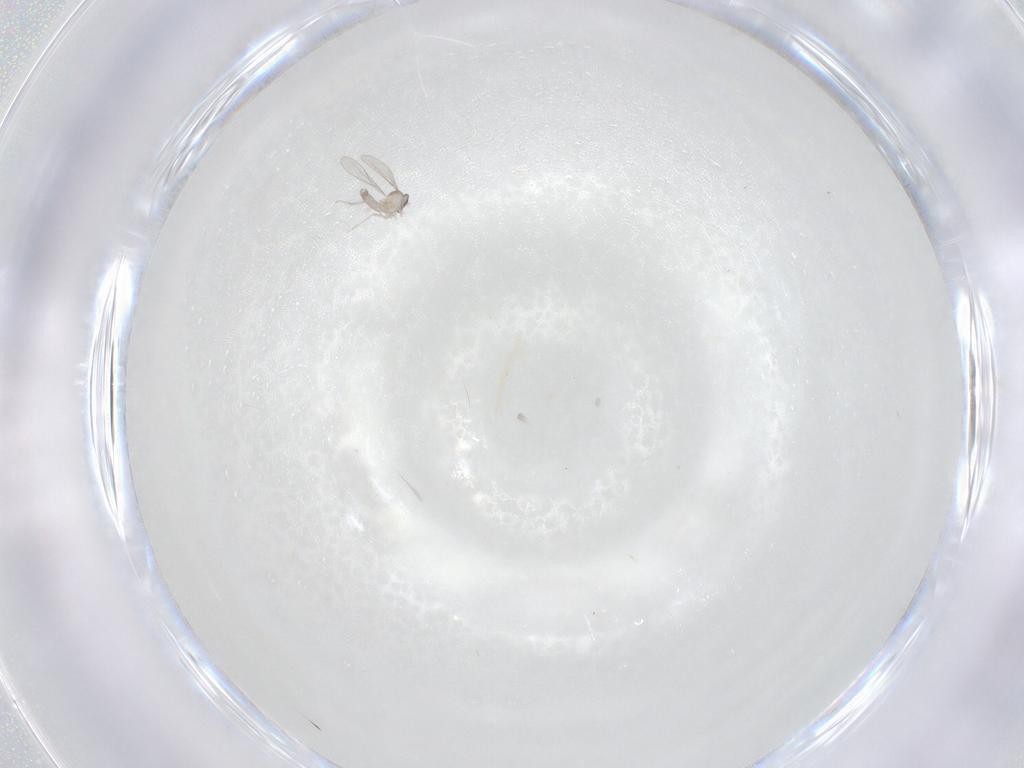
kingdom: Animalia
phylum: Arthropoda
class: Insecta
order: Diptera
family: Cecidomyiidae
